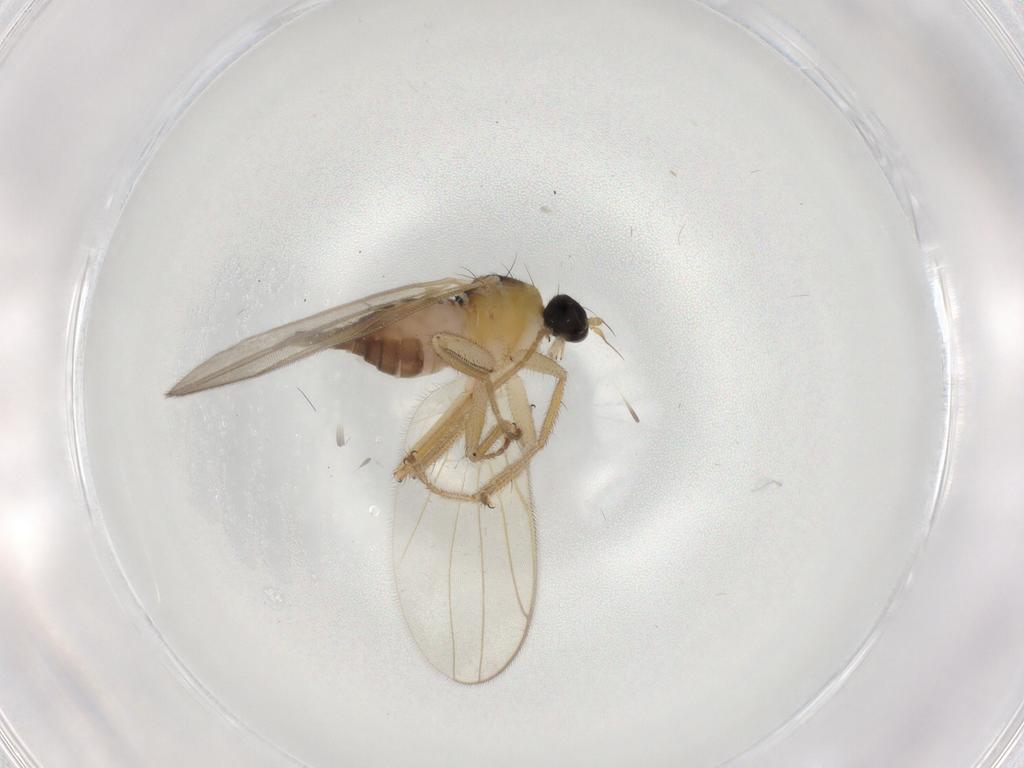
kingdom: Animalia
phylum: Arthropoda
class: Insecta
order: Diptera
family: Hybotidae
